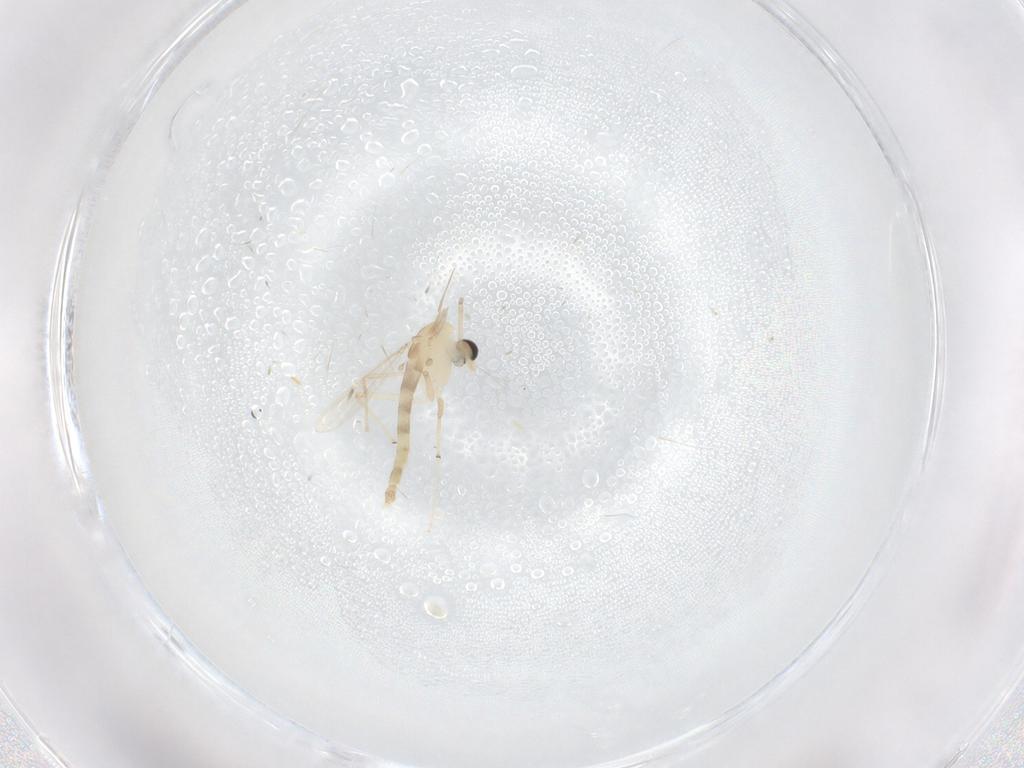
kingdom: Animalia
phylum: Arthropoda
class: Insecta
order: Diptera
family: Chironomidae
